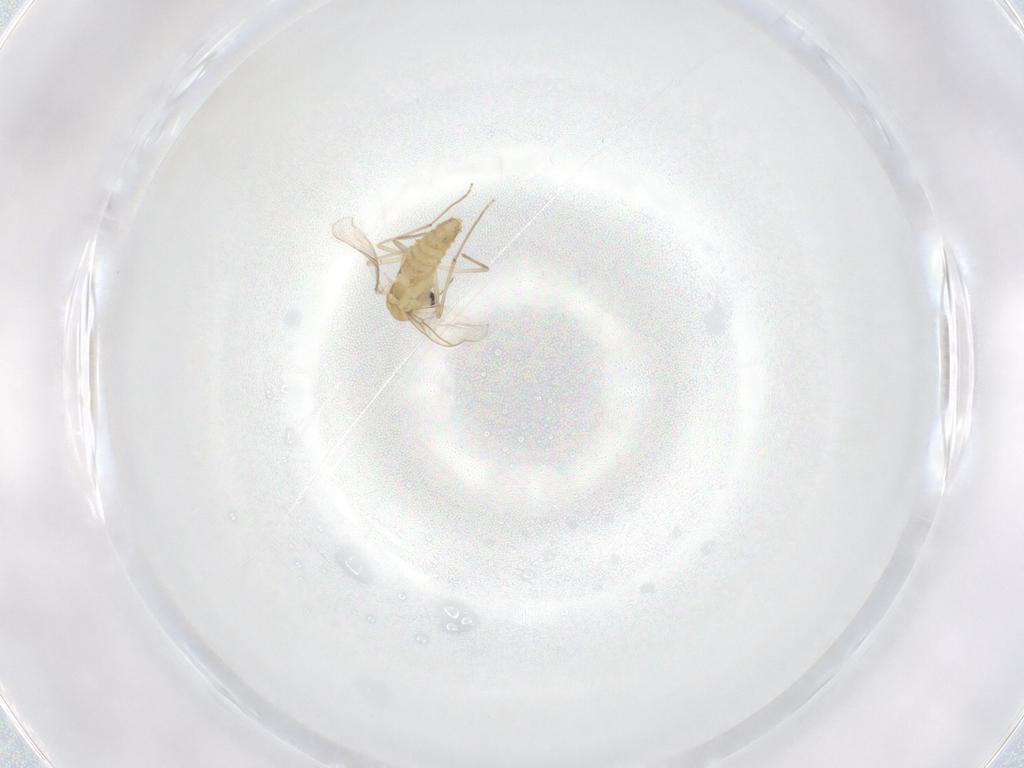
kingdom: Animalia
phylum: Arthropoda
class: Insecta
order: Diptera
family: Chironomidae
